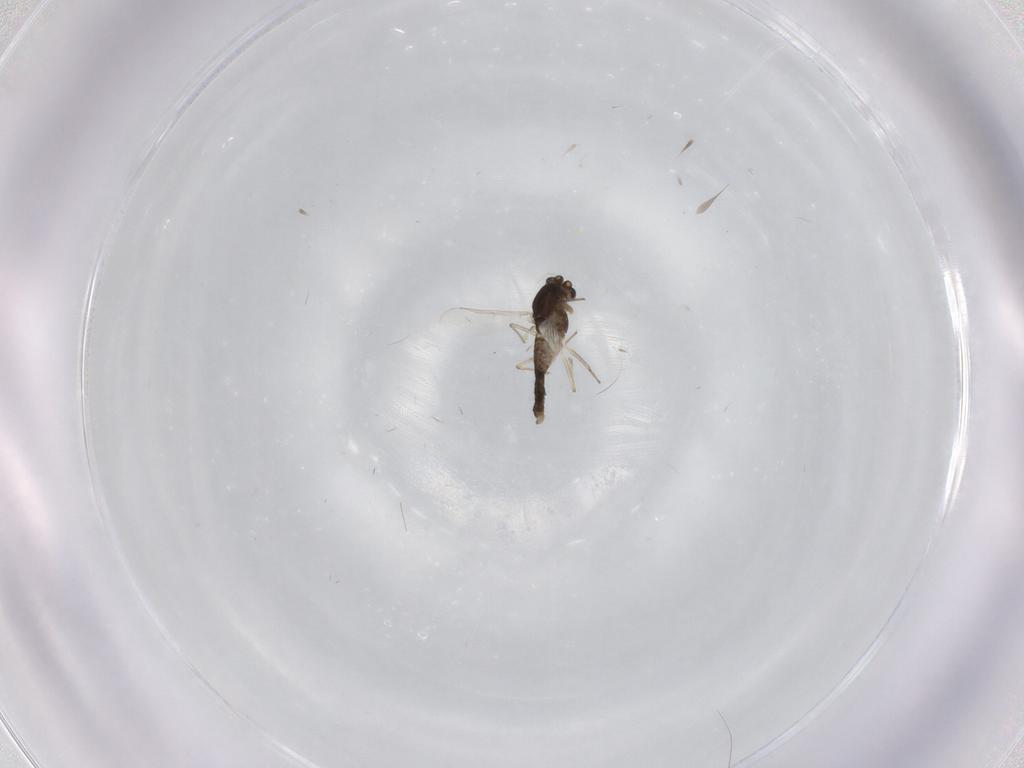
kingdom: Animalia
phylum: Arthropoda
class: Insecta
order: Diptera
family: Phoridae
